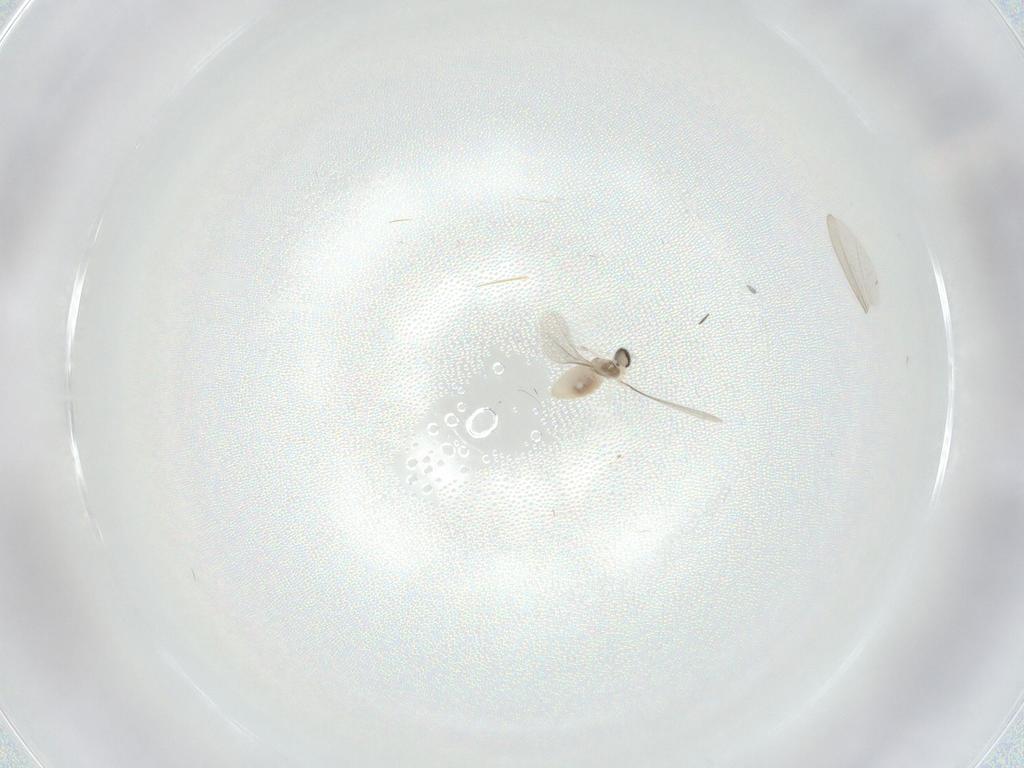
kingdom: Animalia
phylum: Arthropoda
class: Insecta
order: Diptera
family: Cecidomyiidae
